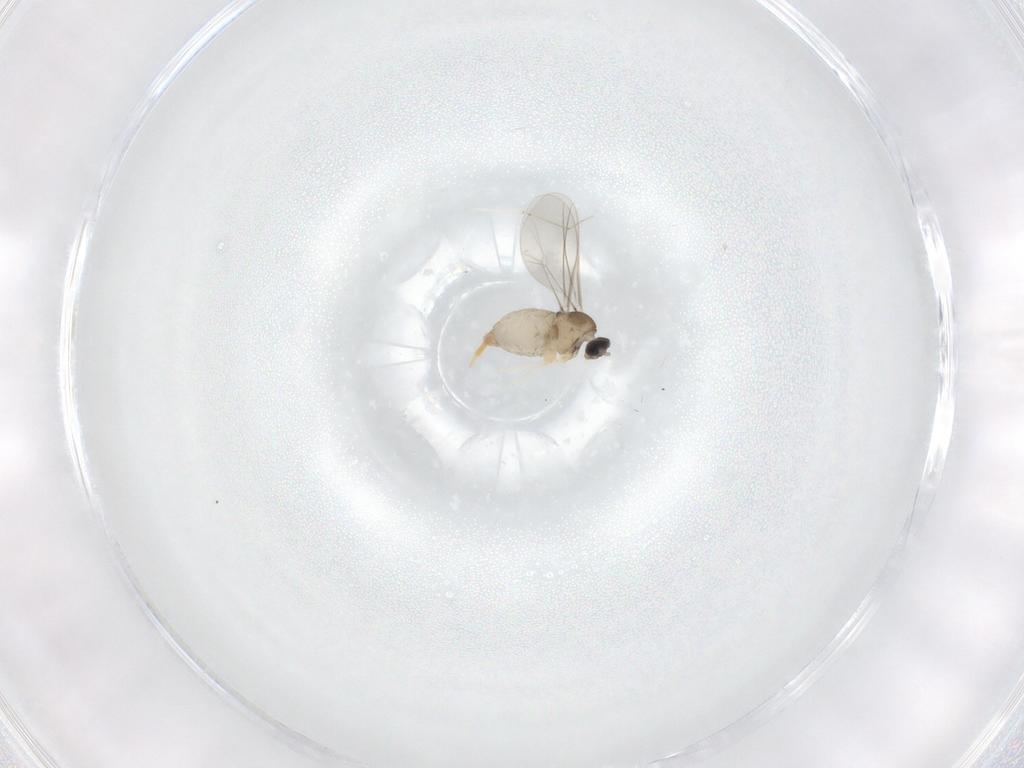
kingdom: Animalia
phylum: Arthropoda
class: Insecta
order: Diptera
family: Cecidomyiidae
